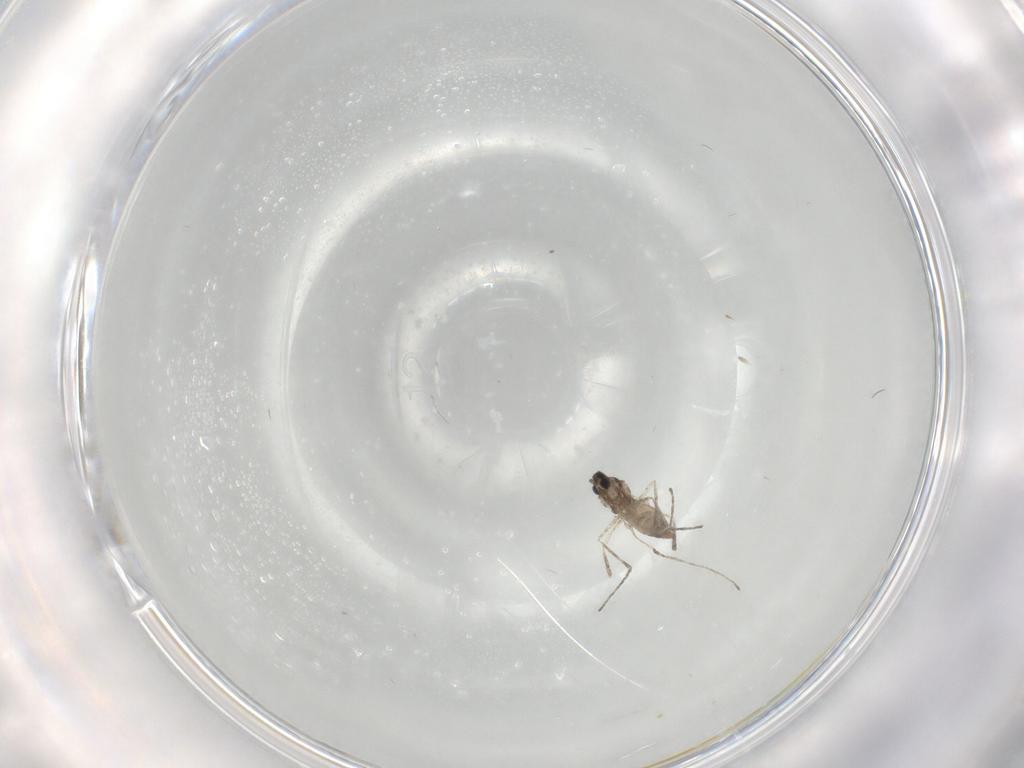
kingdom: Animalia
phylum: Arthropoda
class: Insecta
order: Diptera
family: Cecidomyiidae
